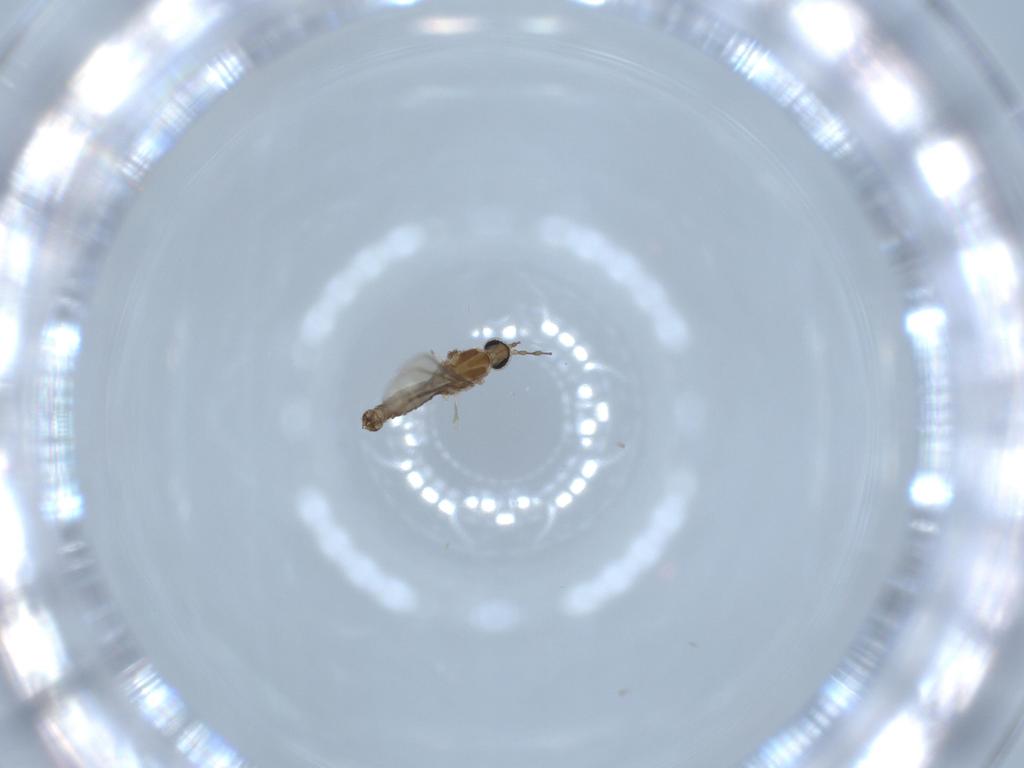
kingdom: Animalia
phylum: Arthropoda
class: Insecta
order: Diptera
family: Cecidomyiidae
